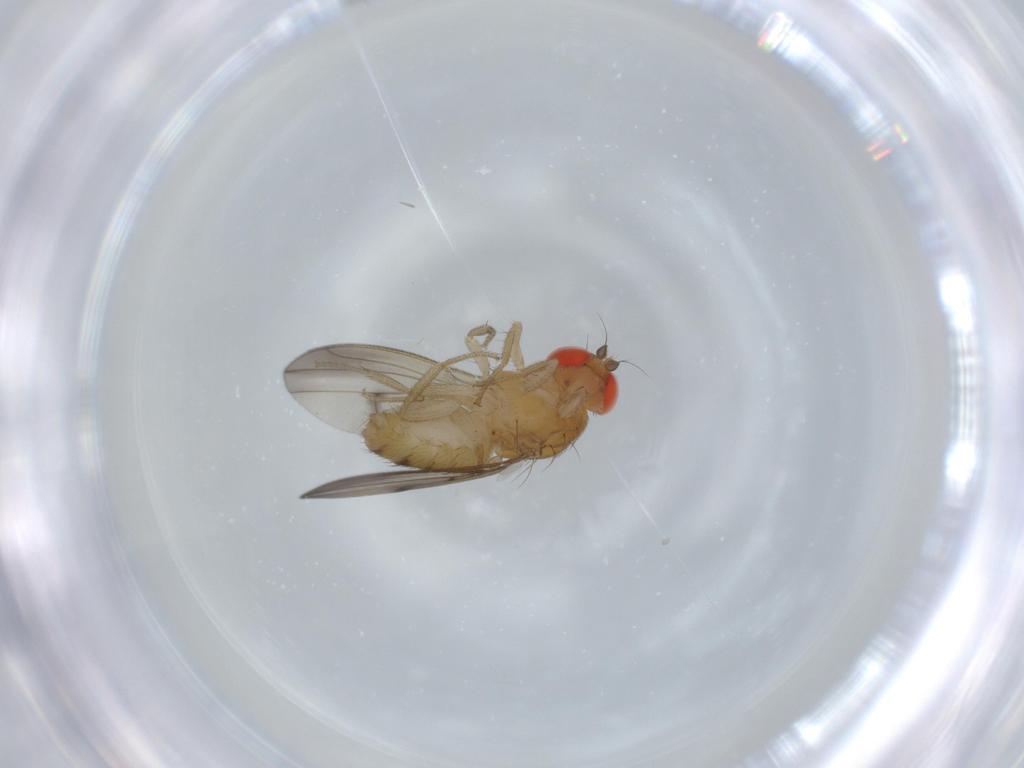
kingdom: Animalia
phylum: Arthropoda
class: Insecta
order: Diptera
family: Drosophilidae
